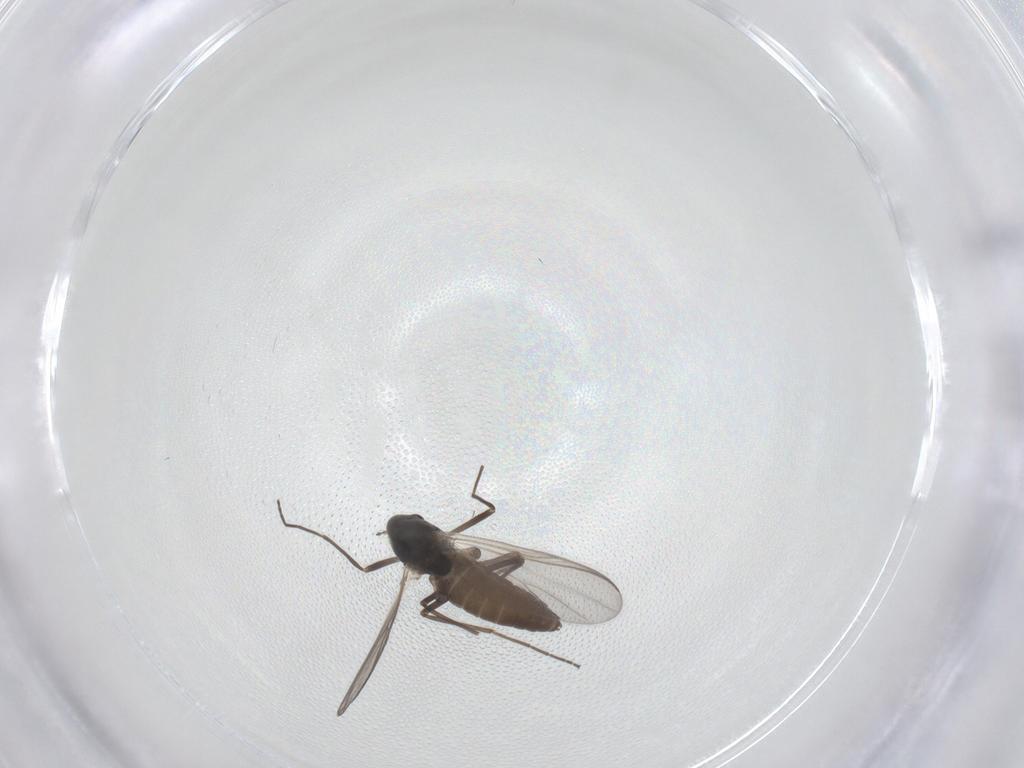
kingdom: Animalia
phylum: Arthropoda
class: Insecta
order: Diptera
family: Chironomidae
